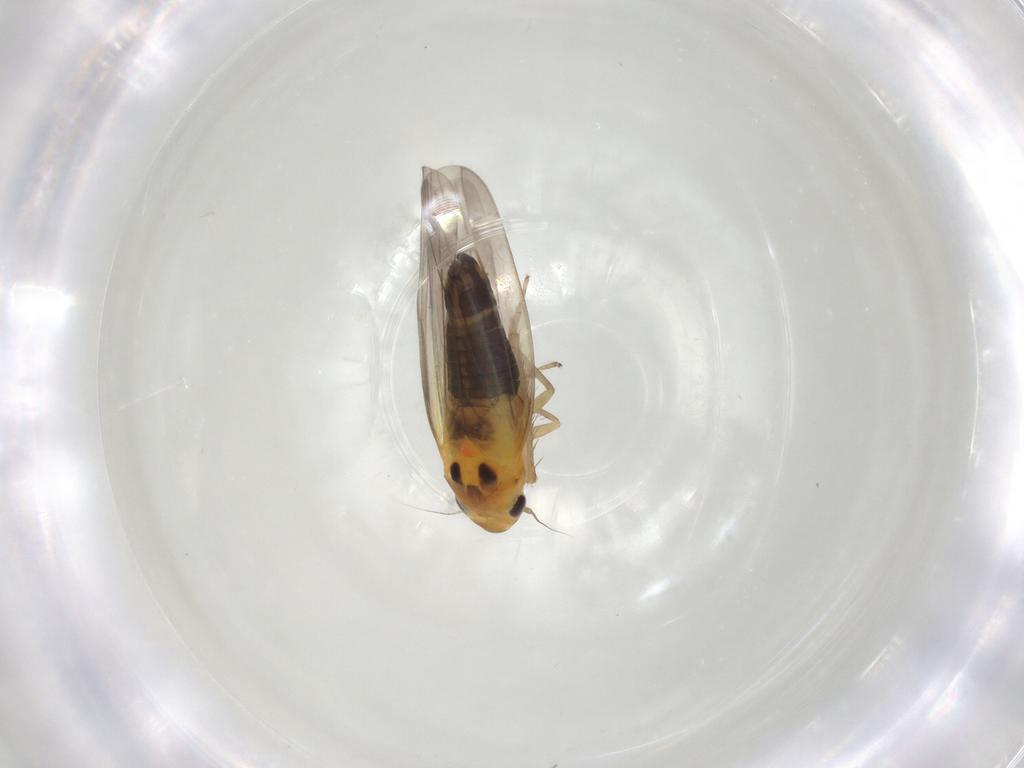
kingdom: Animalia
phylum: Arthropoda
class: Insecta
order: Hemiptera
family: Cicadellidae
